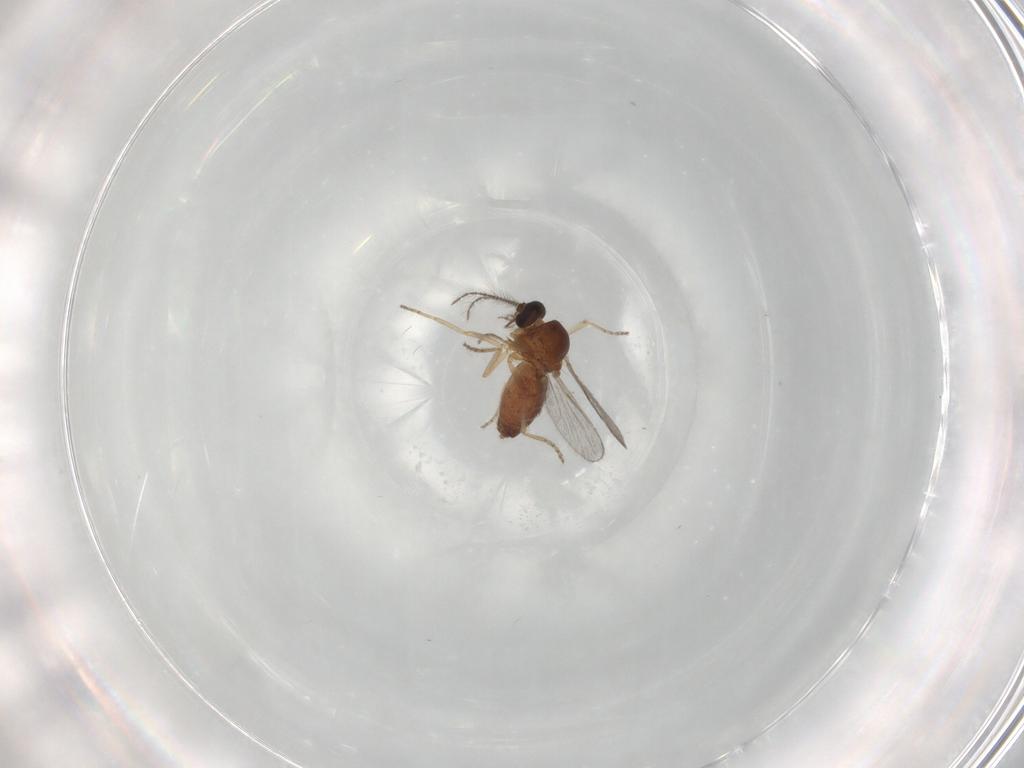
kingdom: Animalia
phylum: Arthropoda
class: Insecta
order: Diptera
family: Ceratopogonidae
